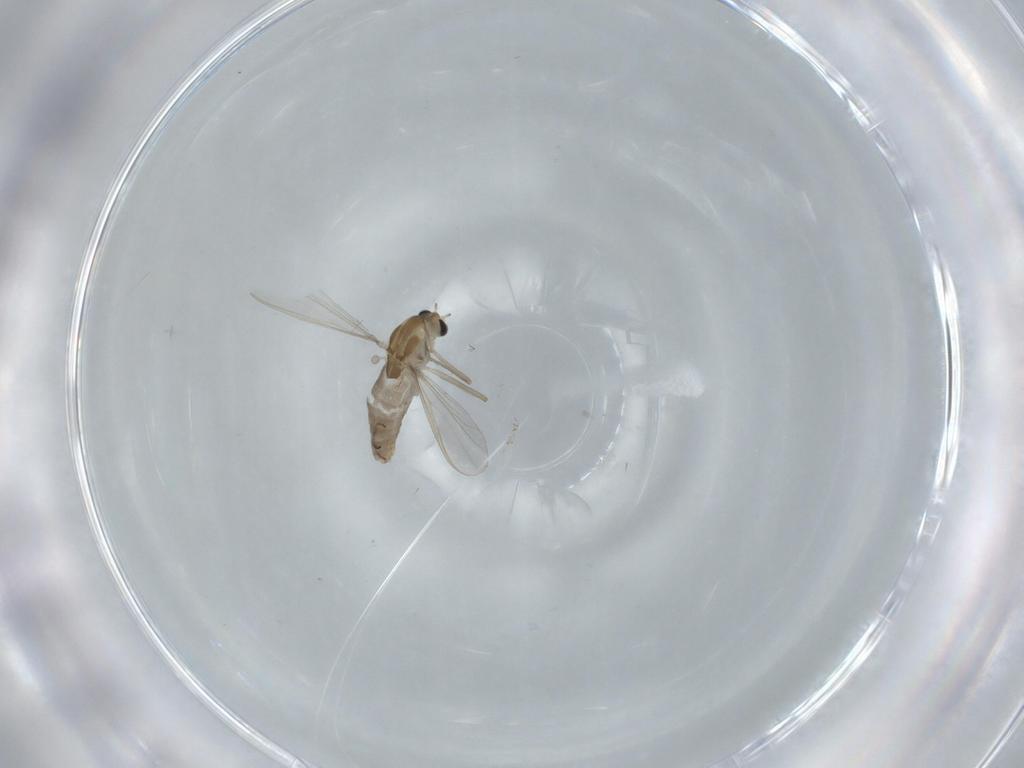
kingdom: Animalia
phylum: Arthropoda
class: Insecta
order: Diptera
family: Chironomidae
